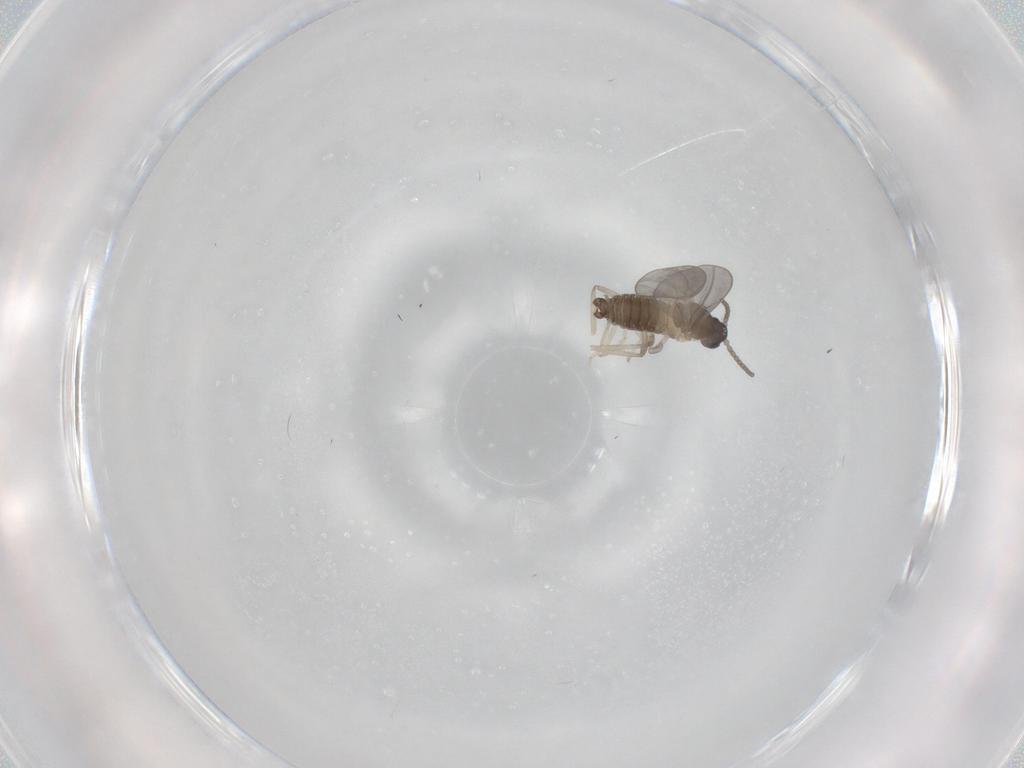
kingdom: Animalia
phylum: Arthropoda
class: Insecta
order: Diptera
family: Cecidomyiidae
